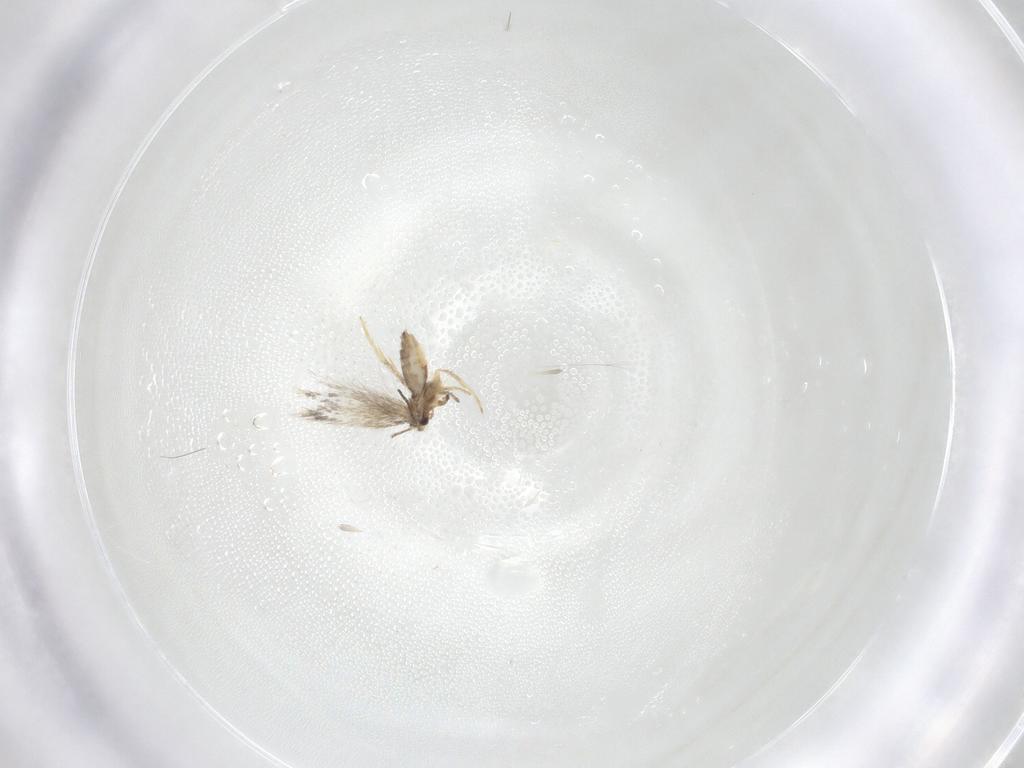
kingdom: Animalia
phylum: Arthropoda
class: Insecta
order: Lepidoptera
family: Nepticulidae
